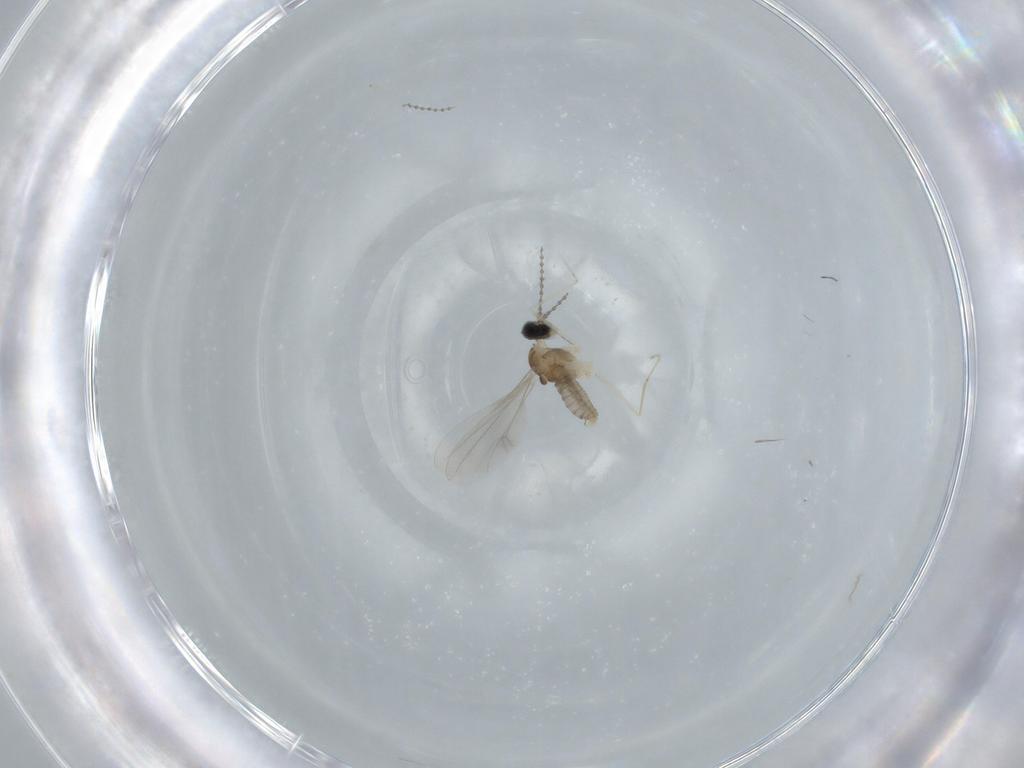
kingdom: Animalia
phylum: Arthropoda
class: Insecta
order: Diptera
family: Cecidomyiidae
